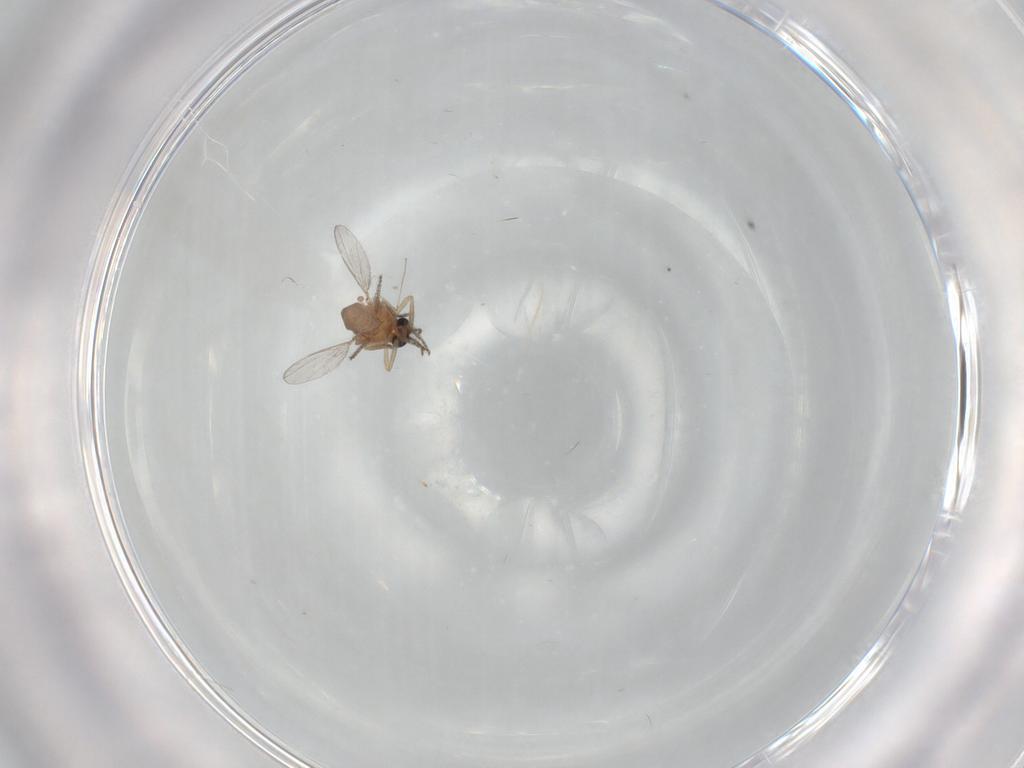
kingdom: Animalia
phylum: Arthropoda
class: Insecta
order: Diptera
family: Ceratopogonidae
